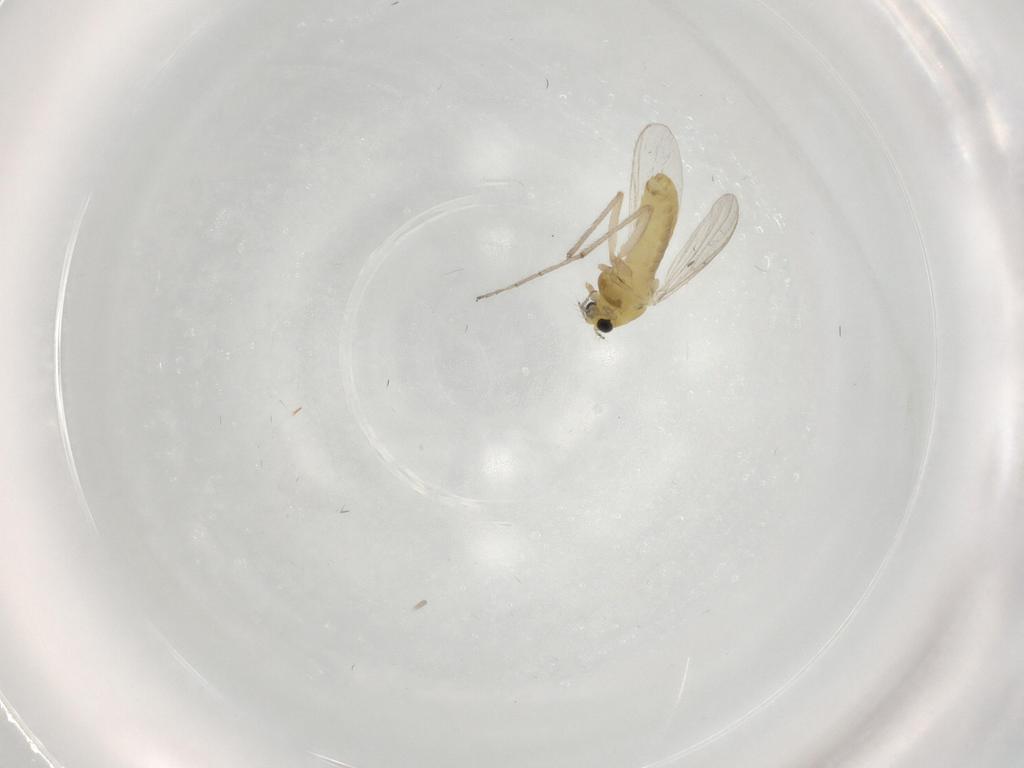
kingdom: Animalia
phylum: Arthropoda
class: Insecta
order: Diptera
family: Chironomidae
